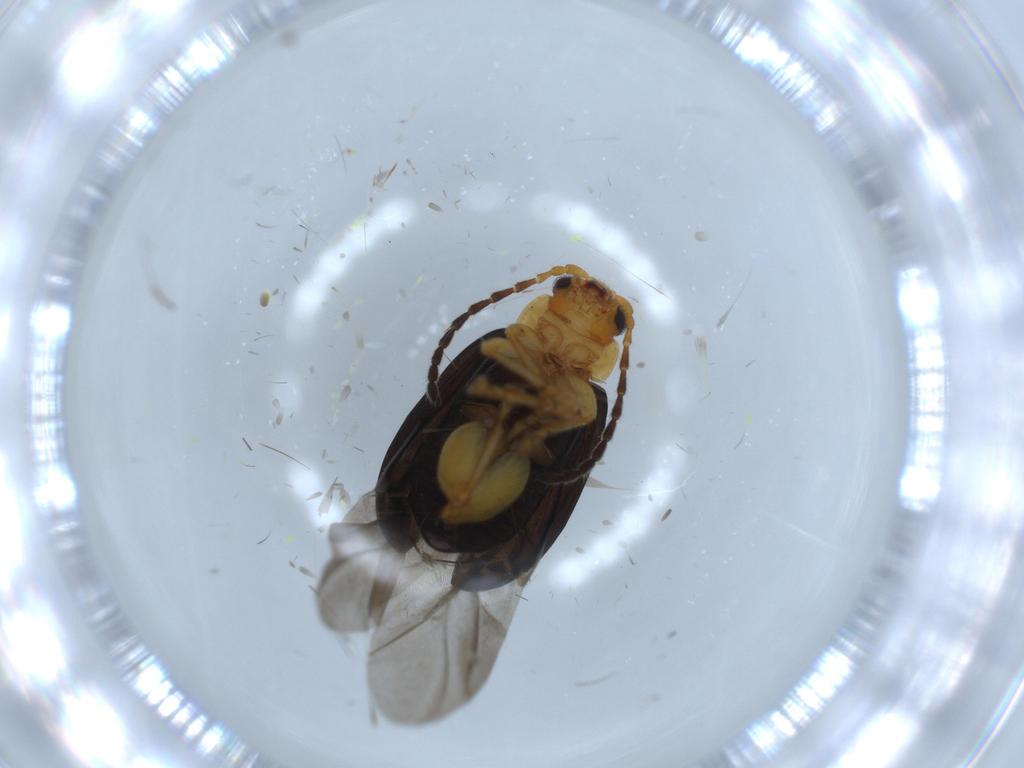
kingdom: Animalia
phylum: Arthropoda
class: Insecta
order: Coleoptera
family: Chrysomelidae
